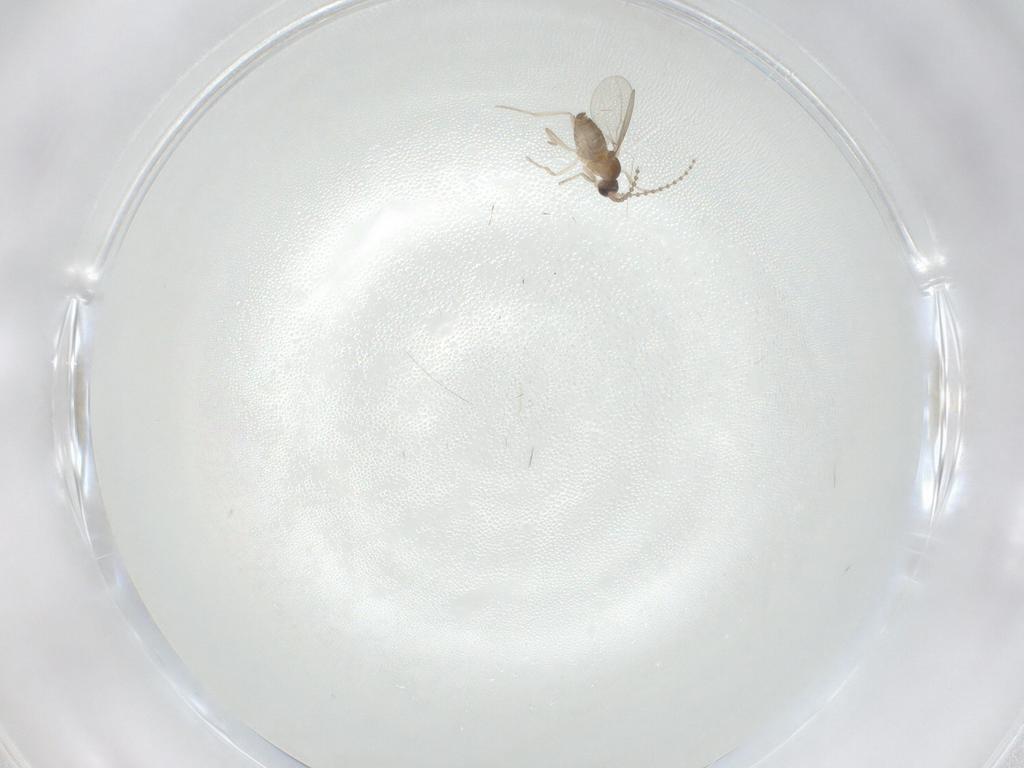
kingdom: Animalia
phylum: Arthropoda
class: Insecta
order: Diptera
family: Cecidomyiidae
